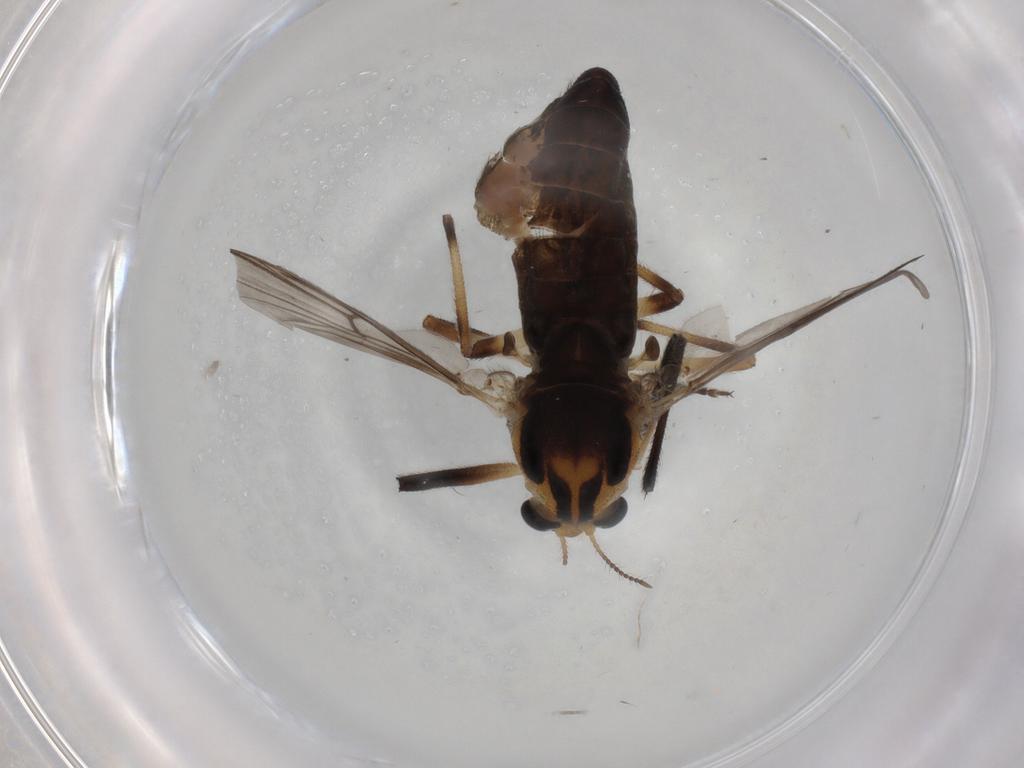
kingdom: Animalia
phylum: Arthropoda
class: Insecta
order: Diptera
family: Chironomidae
